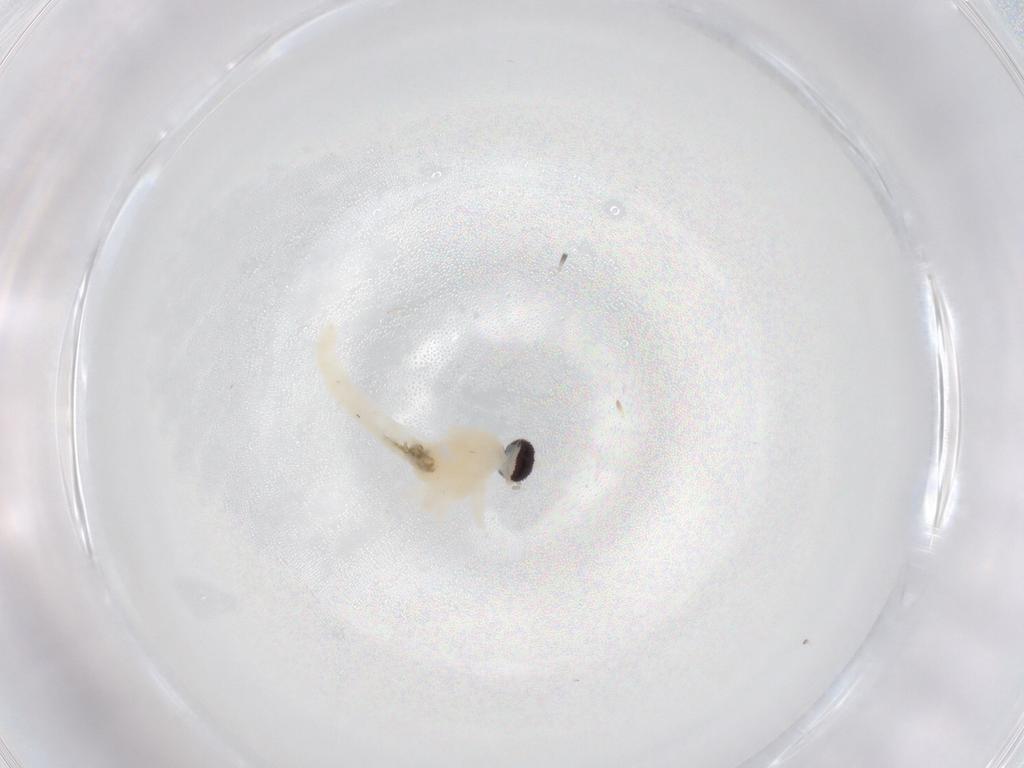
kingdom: Animalia
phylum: Arthropoda
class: Insecta
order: Diptera
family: Cecidomyiidae
